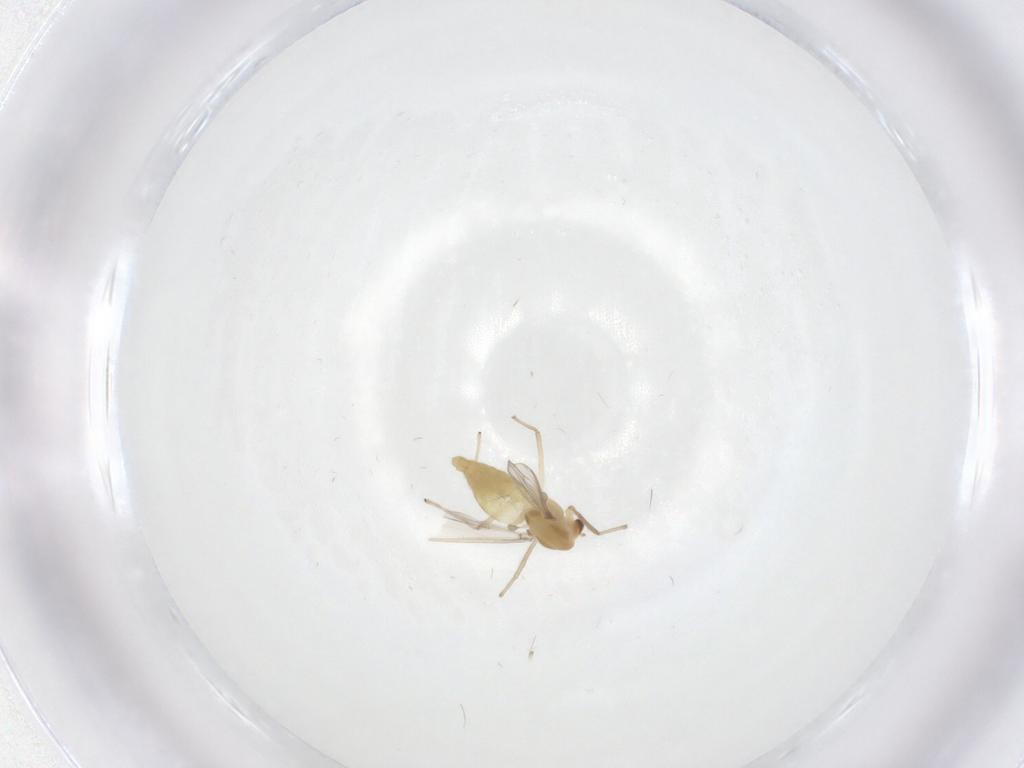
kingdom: Animalia
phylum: Arthropoda
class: Insecta
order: Diptera
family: Chironomidae
